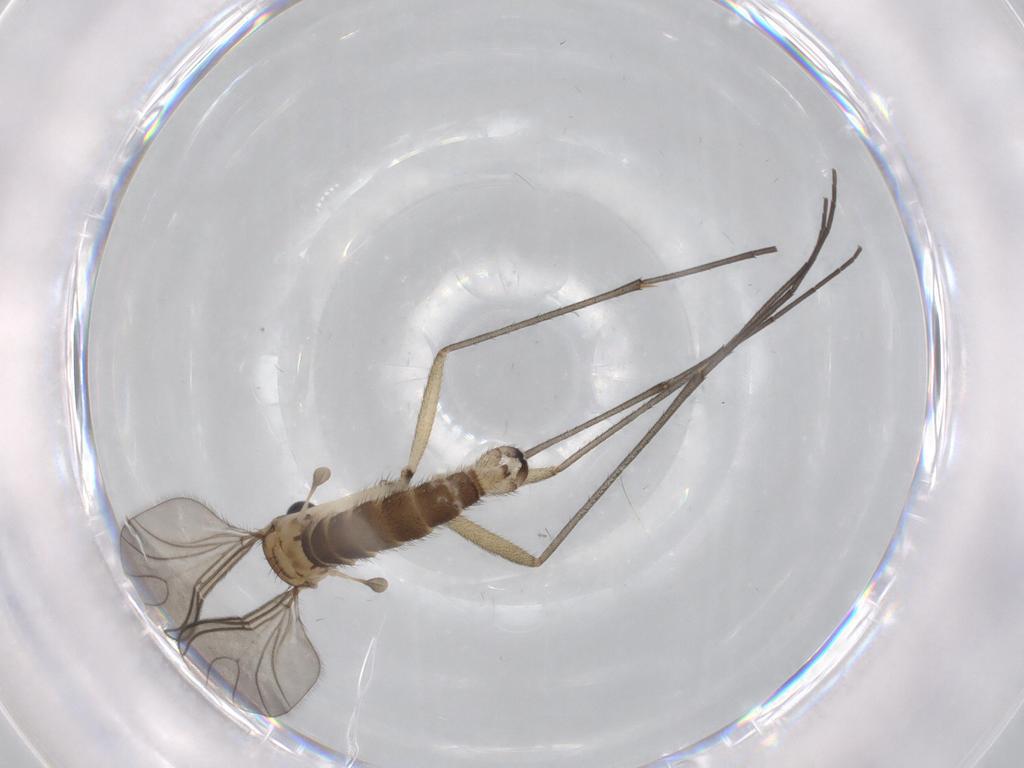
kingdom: Animalia
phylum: Arthropoda
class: Insecta
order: Diptera
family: Sciaridae
